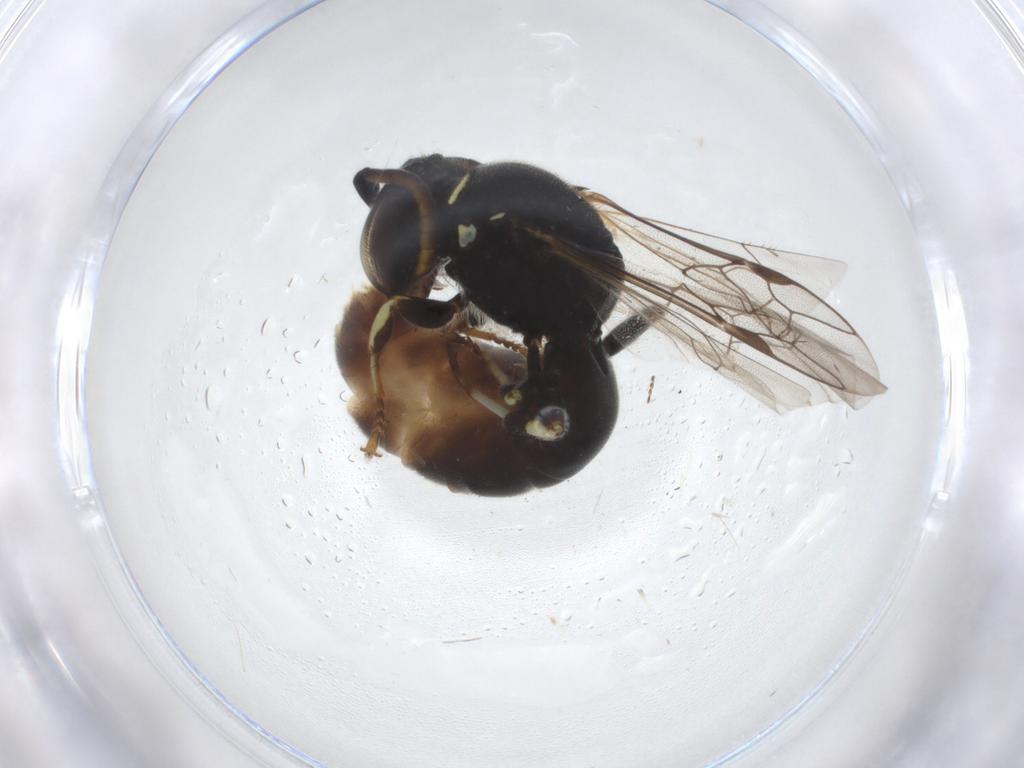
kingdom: Animalia
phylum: Arthropoda
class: Insecta
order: Hymenoptera
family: Colletidae
